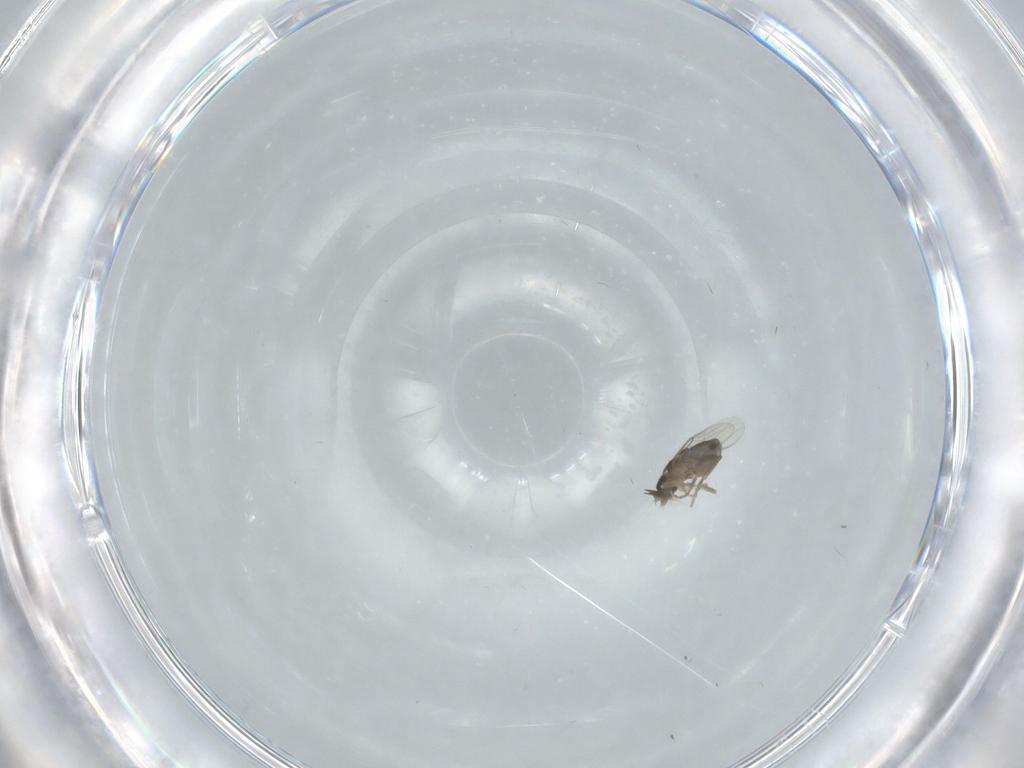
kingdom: Animalia
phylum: Arthropoda
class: Insecta
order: Diptera
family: Phoridae
